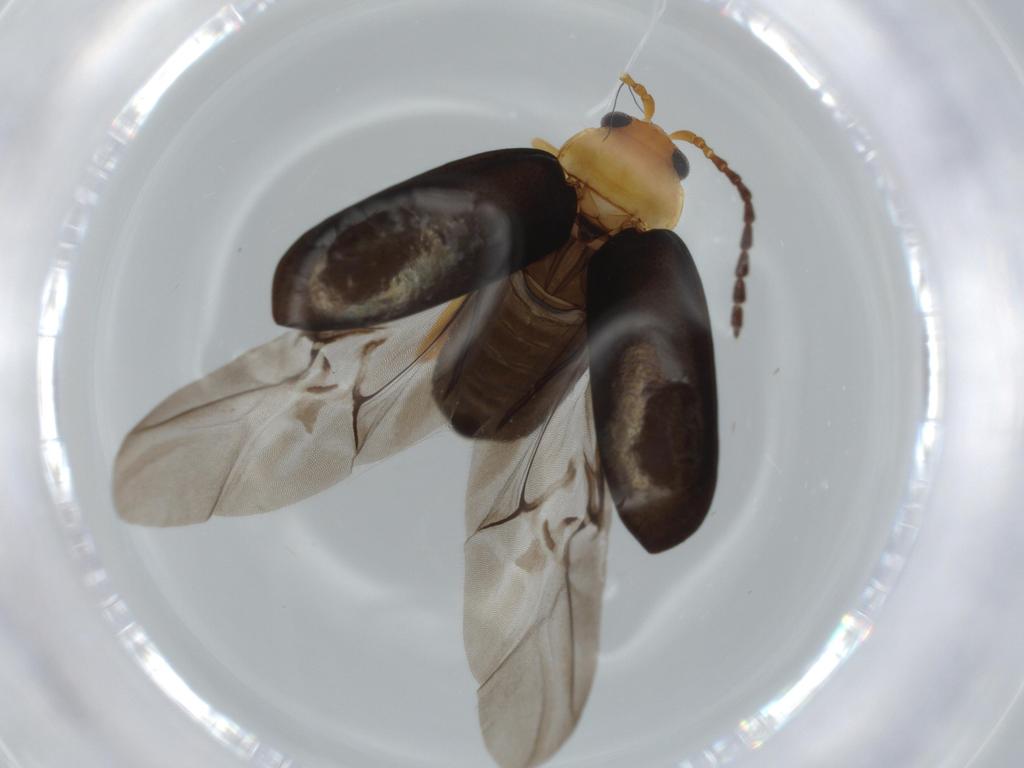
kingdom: Animalia
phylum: Arthropoda
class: Insecta
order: Coleoptera
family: Chrysomelidae
